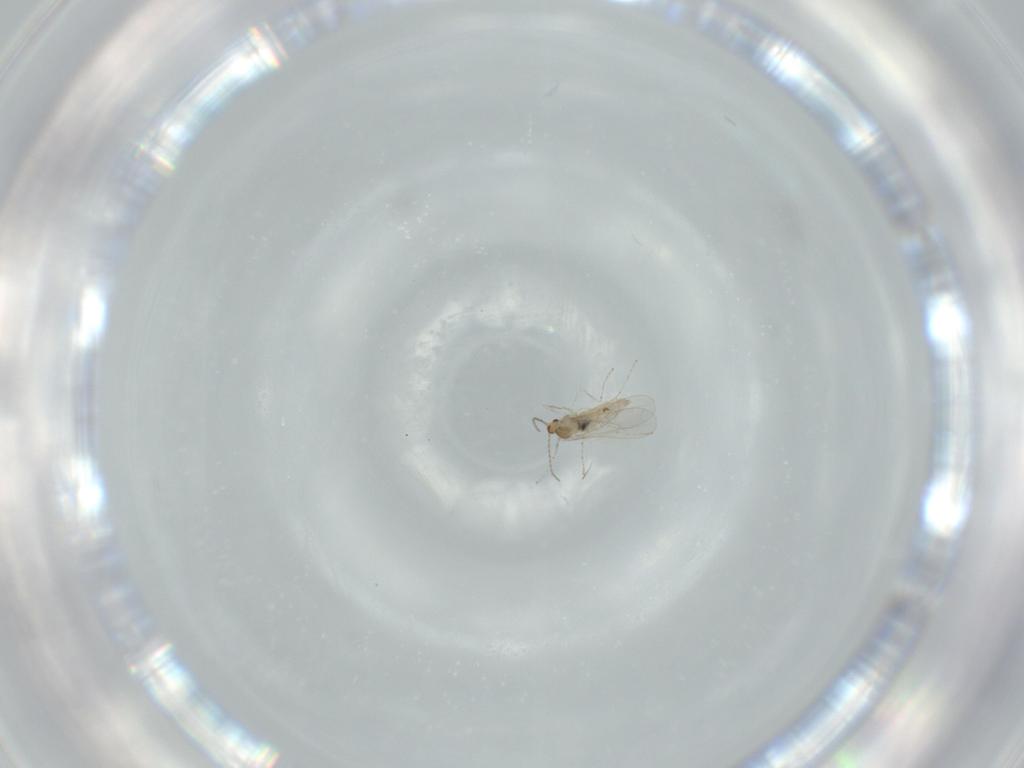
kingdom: Animalia
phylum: Arthropoda
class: Insecta
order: Diptera
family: Cecidomyiidae
